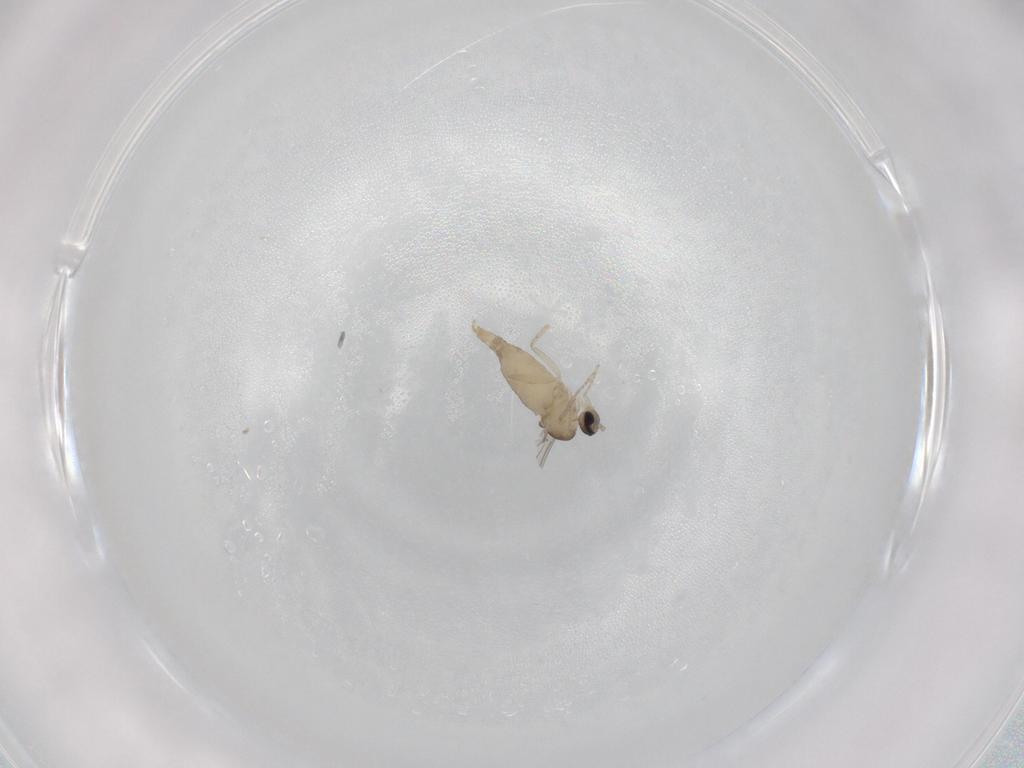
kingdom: Animalia
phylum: Arthropoda
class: Insecta
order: Diptera
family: Cecidomyiidae
